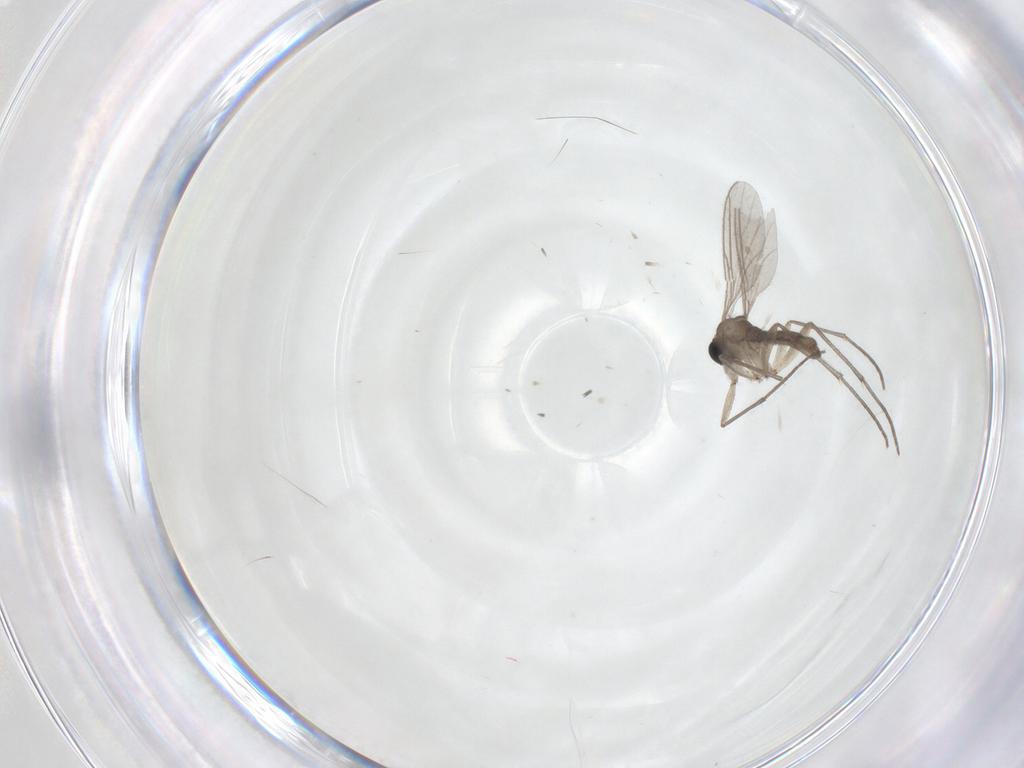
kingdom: Animalia
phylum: Arthropoda
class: Insecta
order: Diptera
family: Sciaridae
